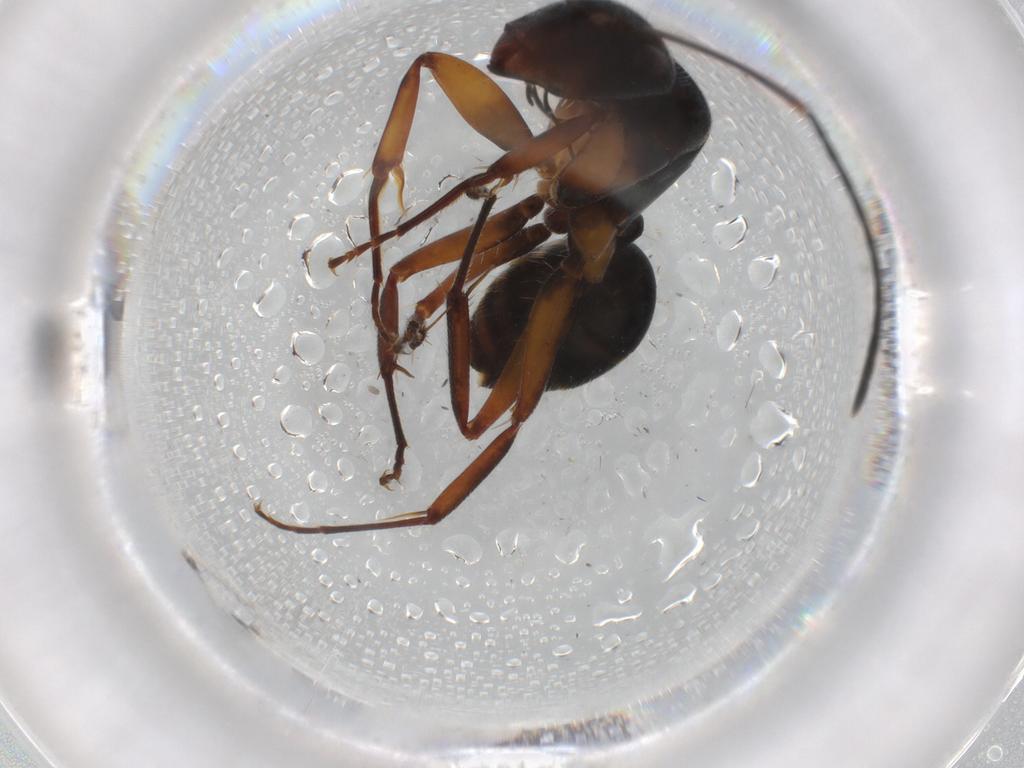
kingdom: Animalia
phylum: Arthropoda
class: Insecta
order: Hymenoptera
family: Formicidae
